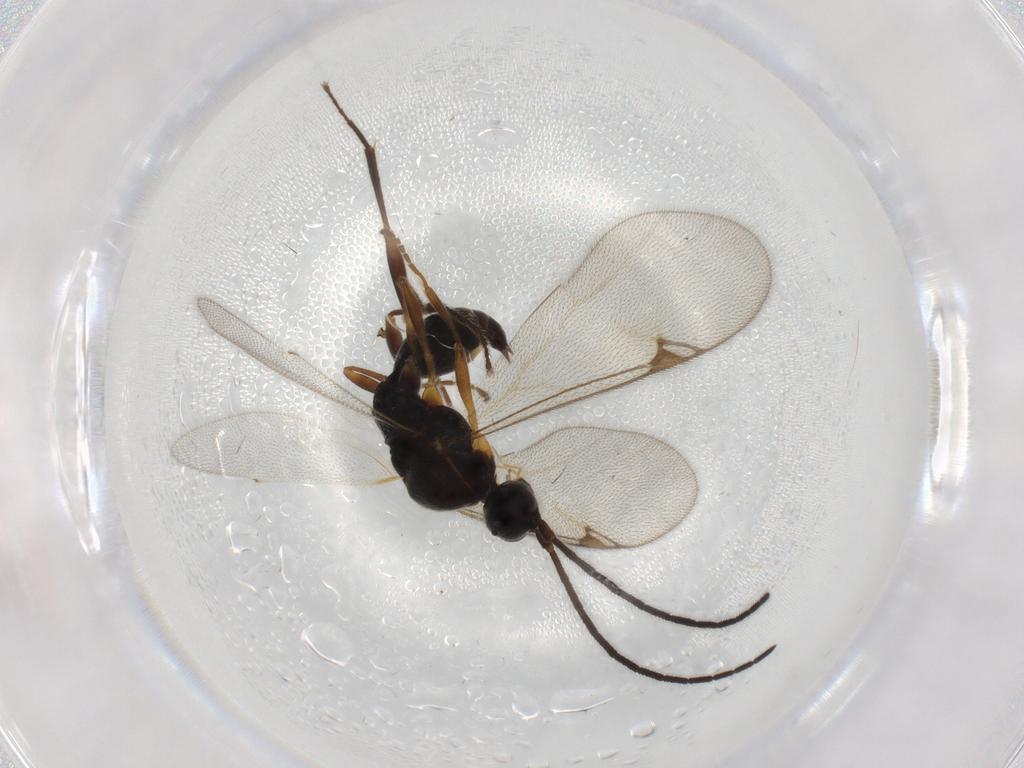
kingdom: Animalia
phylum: Arthropoda
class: Insecta
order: Hymenoptera
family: Proctotrupidae
